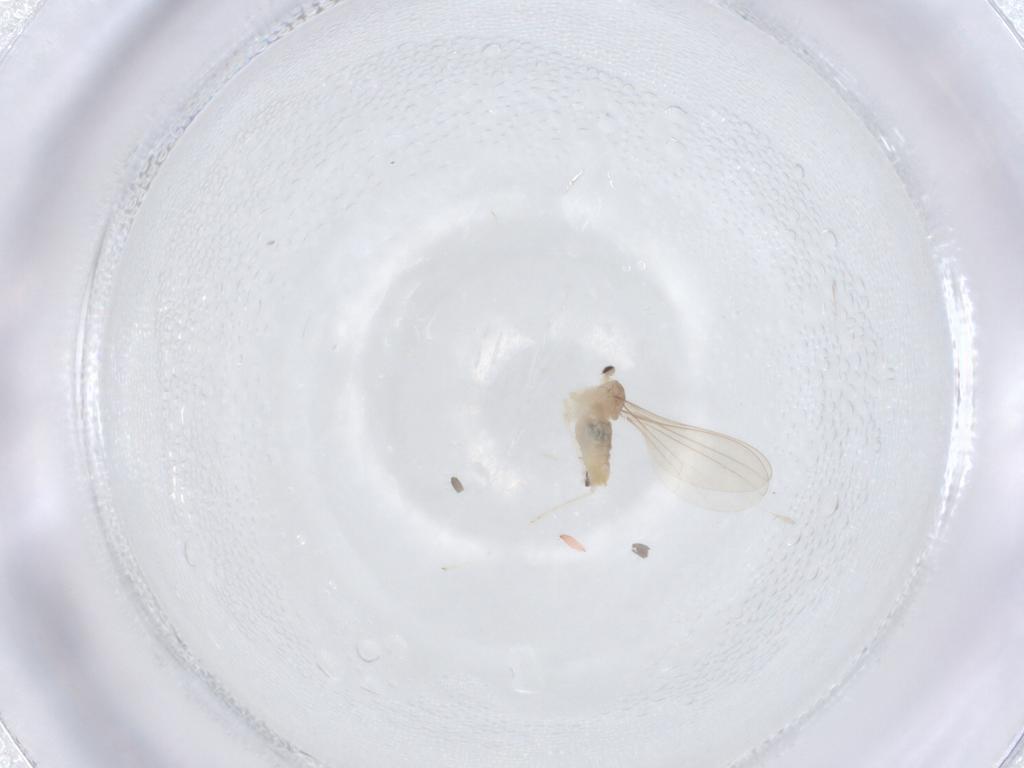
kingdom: Animalia
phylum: Arthropoda
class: Insecta
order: Diptera
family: Cecidomyiidae
